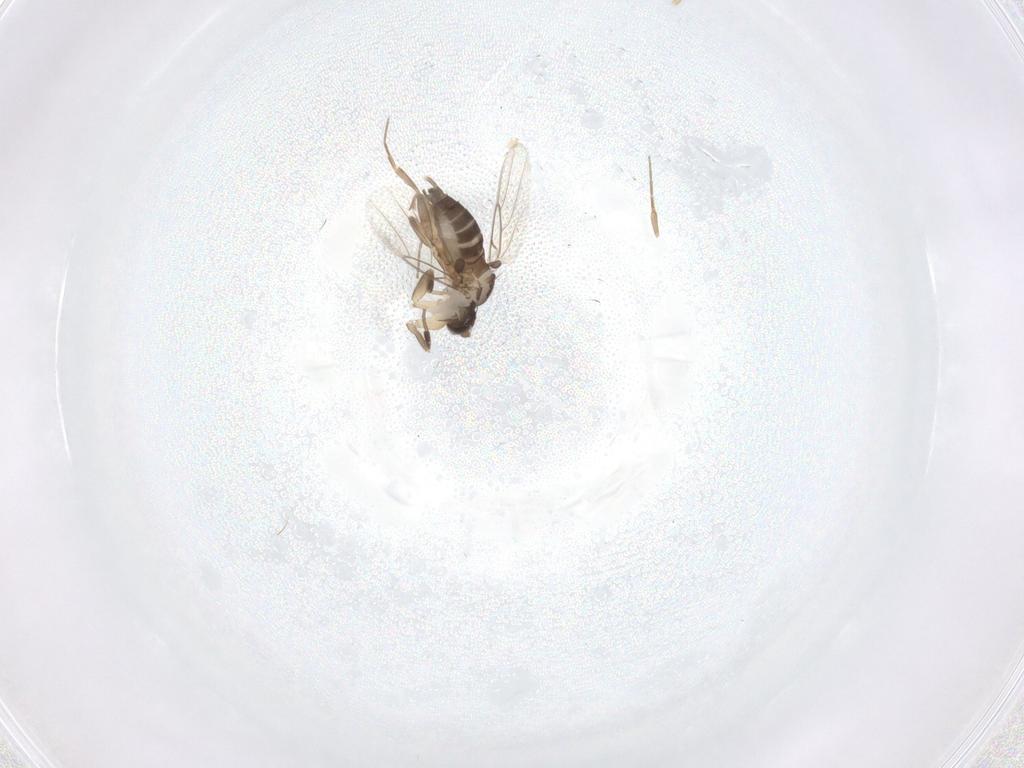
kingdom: Animalia
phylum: Arthropoda
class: Insecta
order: Diptera
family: Phoridae
